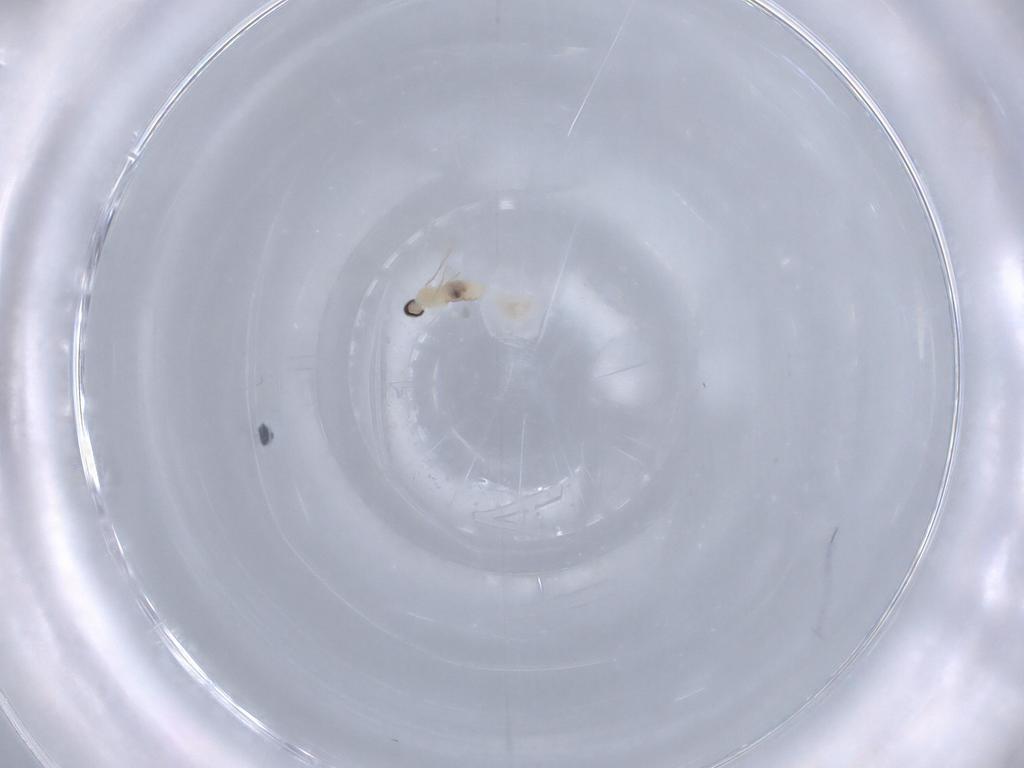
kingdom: Animalia
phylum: Arthropoda
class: Insecta
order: Diptera
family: Cecidomyiidae
